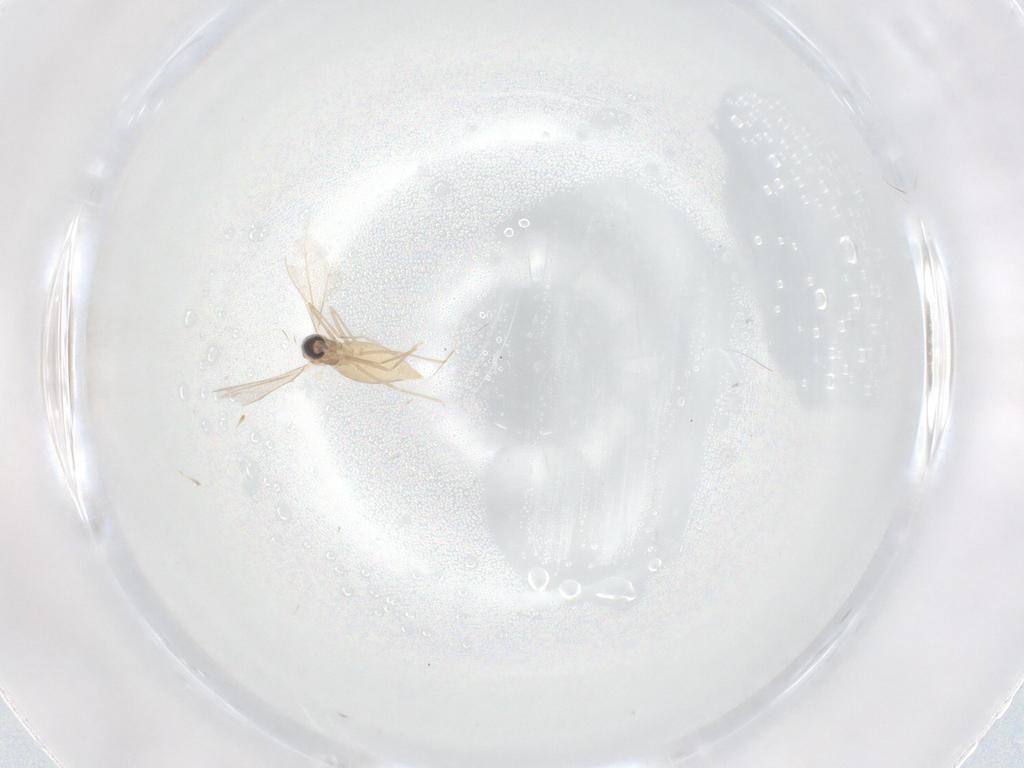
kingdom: Animalia
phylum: Arthropoda
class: Insecta
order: Diptera
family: Cecidomyiidae
